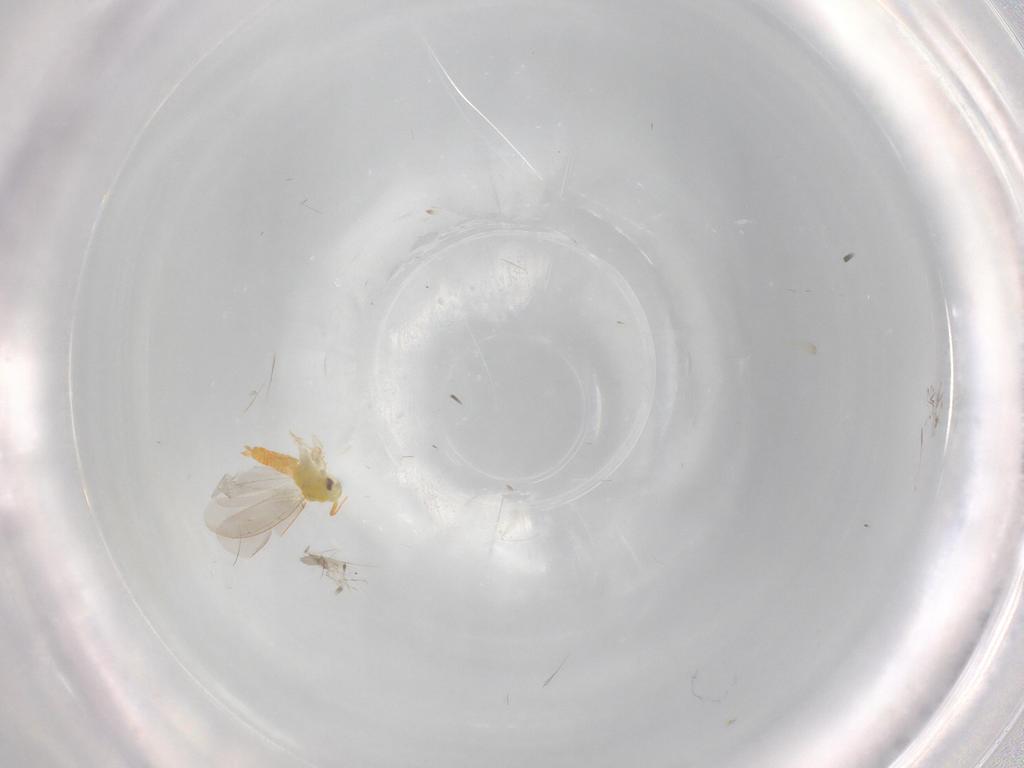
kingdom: Animalia
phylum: Arthropoda
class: Insecta
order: Hemiptera
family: Aleyrodidae
